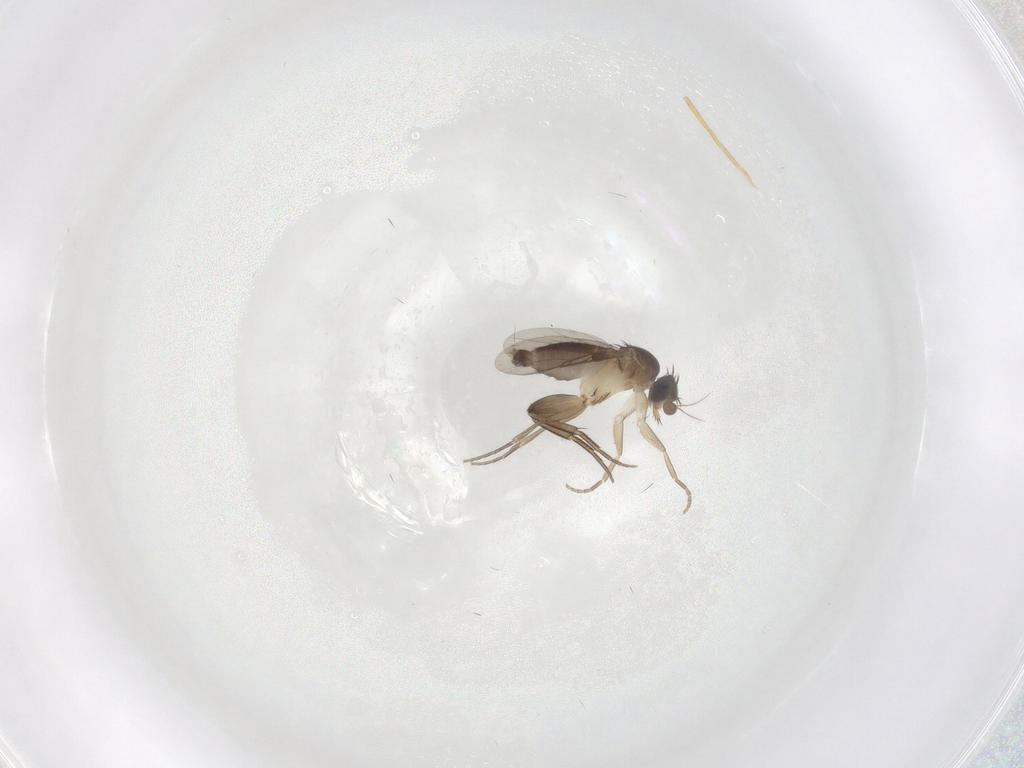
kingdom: Animalia
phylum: Arthropoda
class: Insecta
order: Diptera
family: Phoridae
